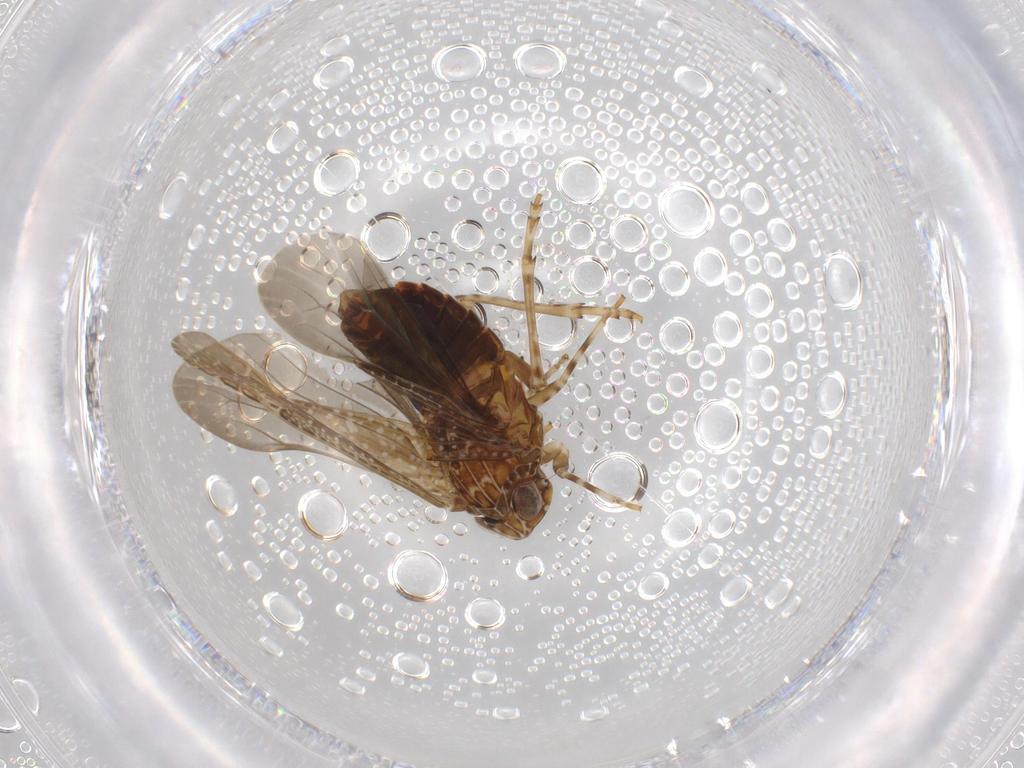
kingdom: Animalia
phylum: Arthropoda
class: Insecta
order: Hemiptera
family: Achilidae
